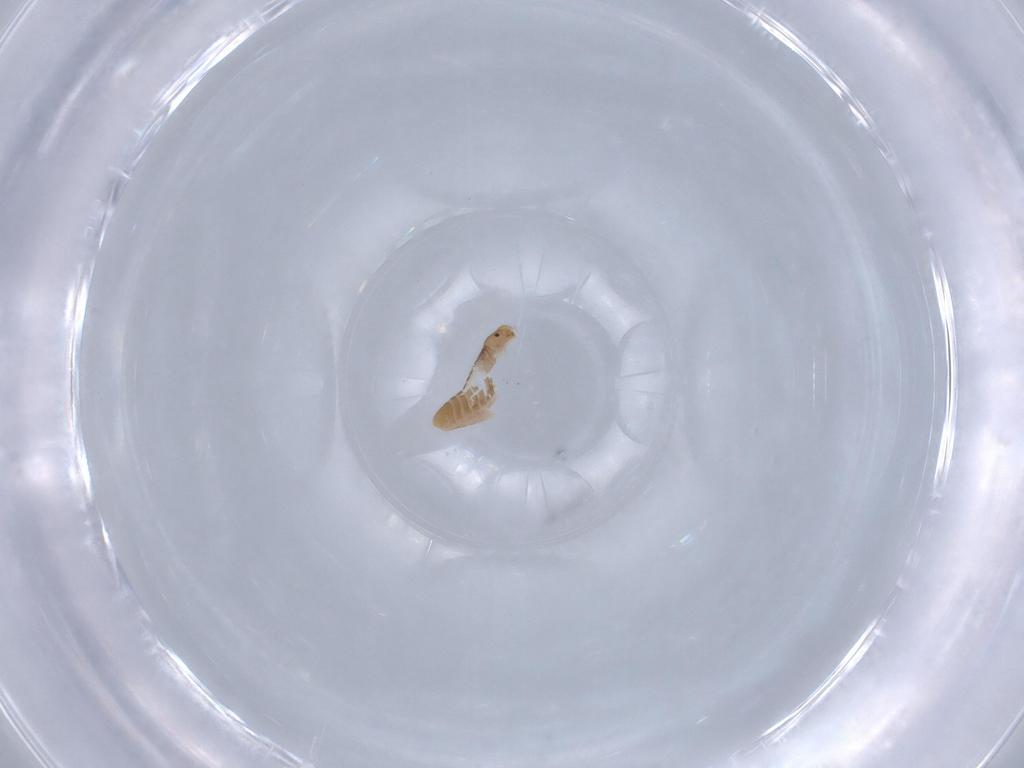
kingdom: Animalia
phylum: Arthropoda
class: Insecta
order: Psocodea
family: Liposcelididae
